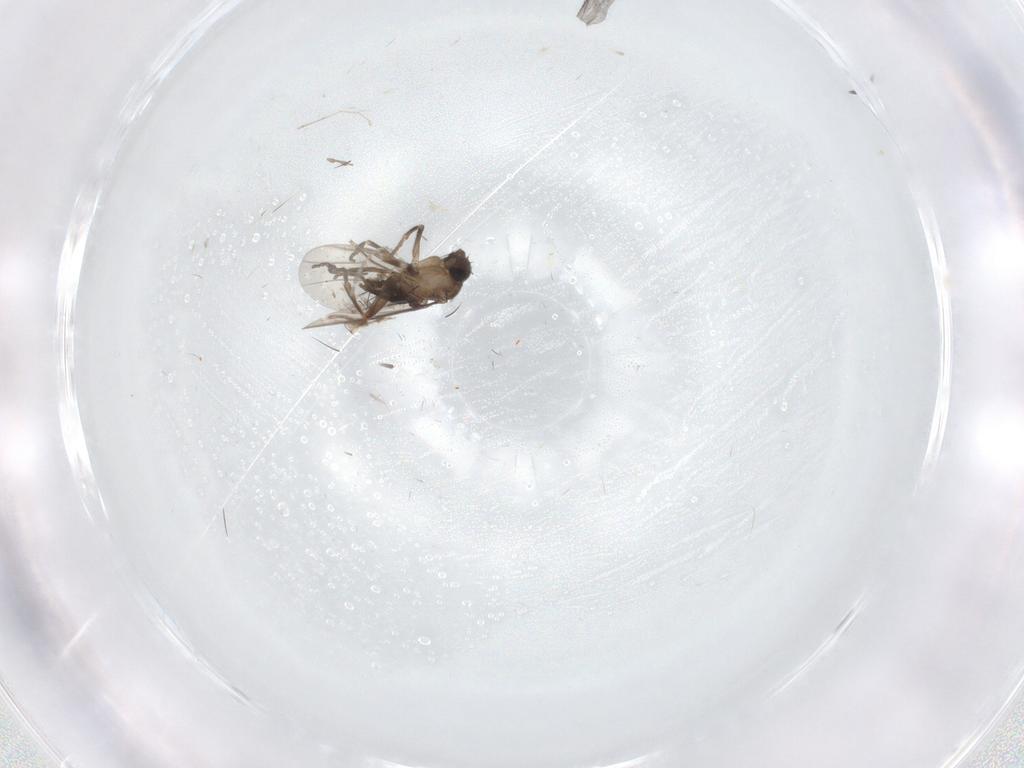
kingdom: Animalia
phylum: Arthropoda
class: Insecta
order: Diptera
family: Sciaridae
